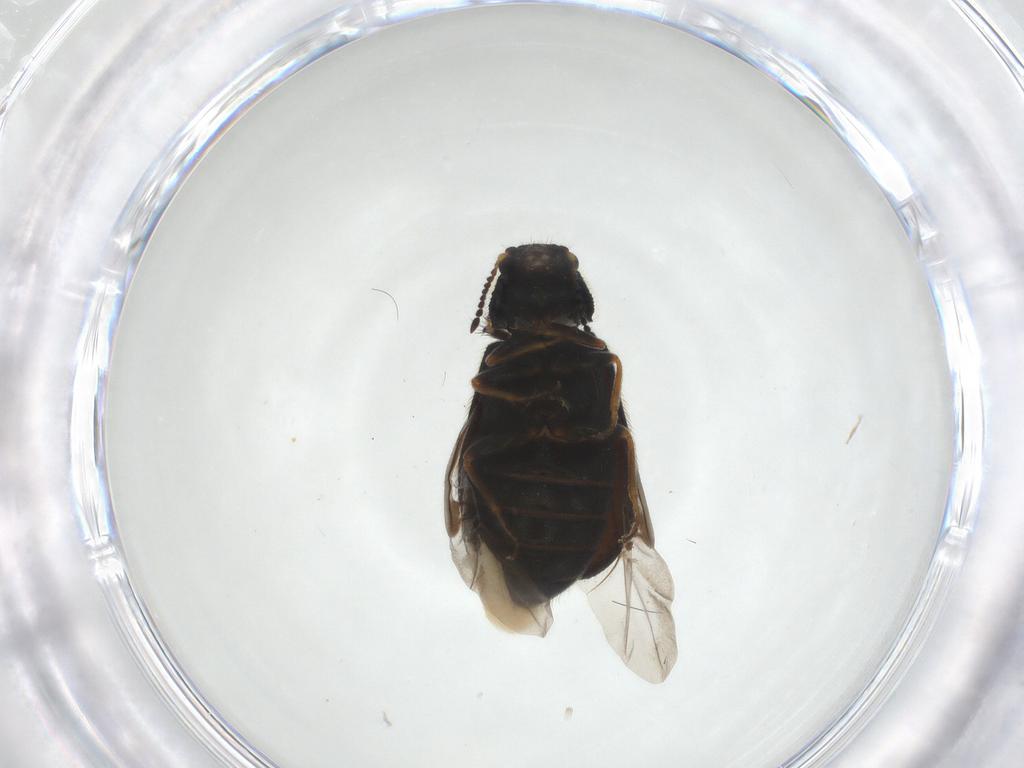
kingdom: Animalia
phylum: Arthropoda
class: Insecta
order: Coleoptera
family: Melyridae
